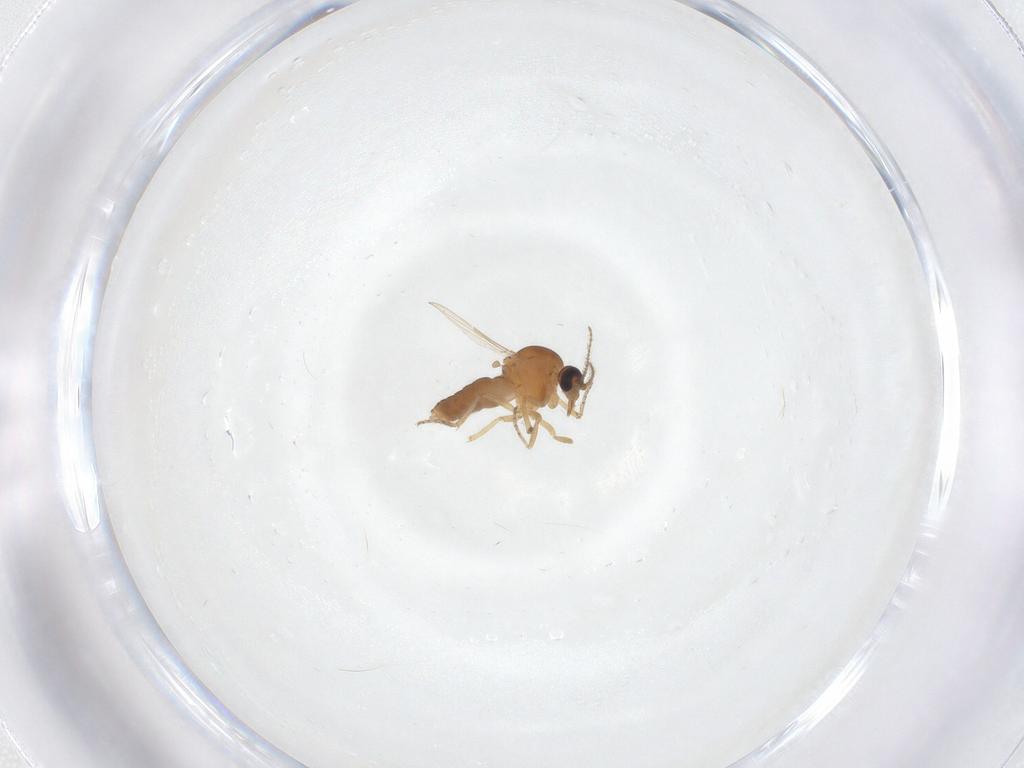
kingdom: Animalia
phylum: Arthropoda
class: Insecta
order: Diptera
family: Ceratopogonidae
